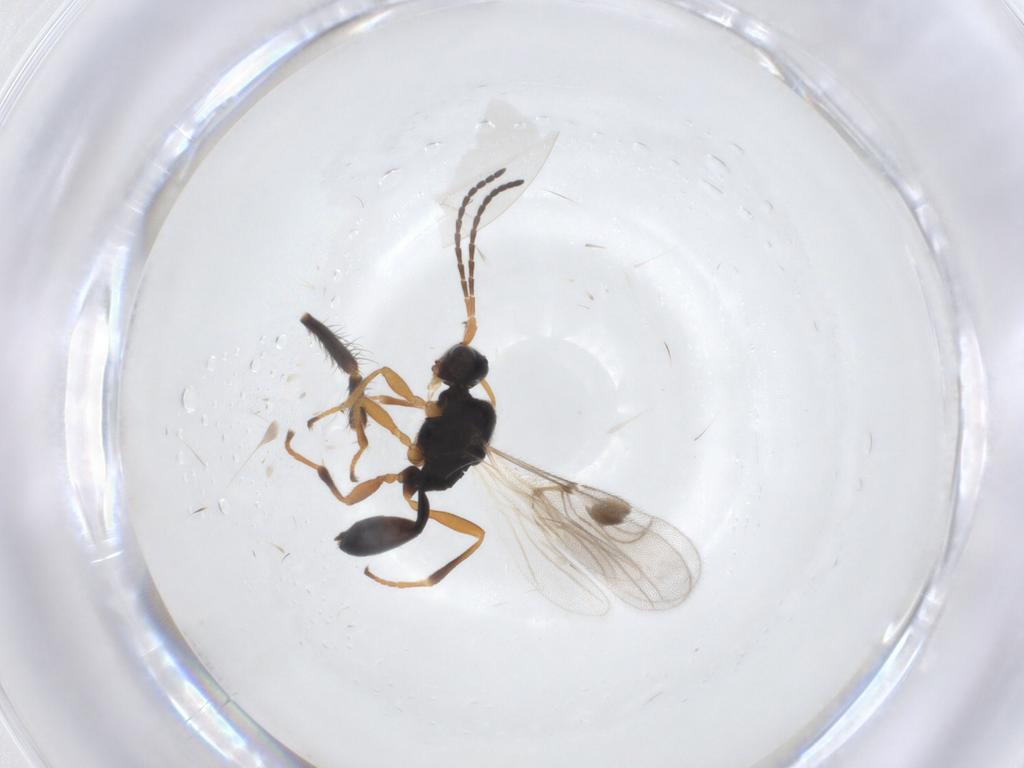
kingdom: Animalia
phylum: Arthropoda
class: Insecta
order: Hymenoptera
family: Braconidae
